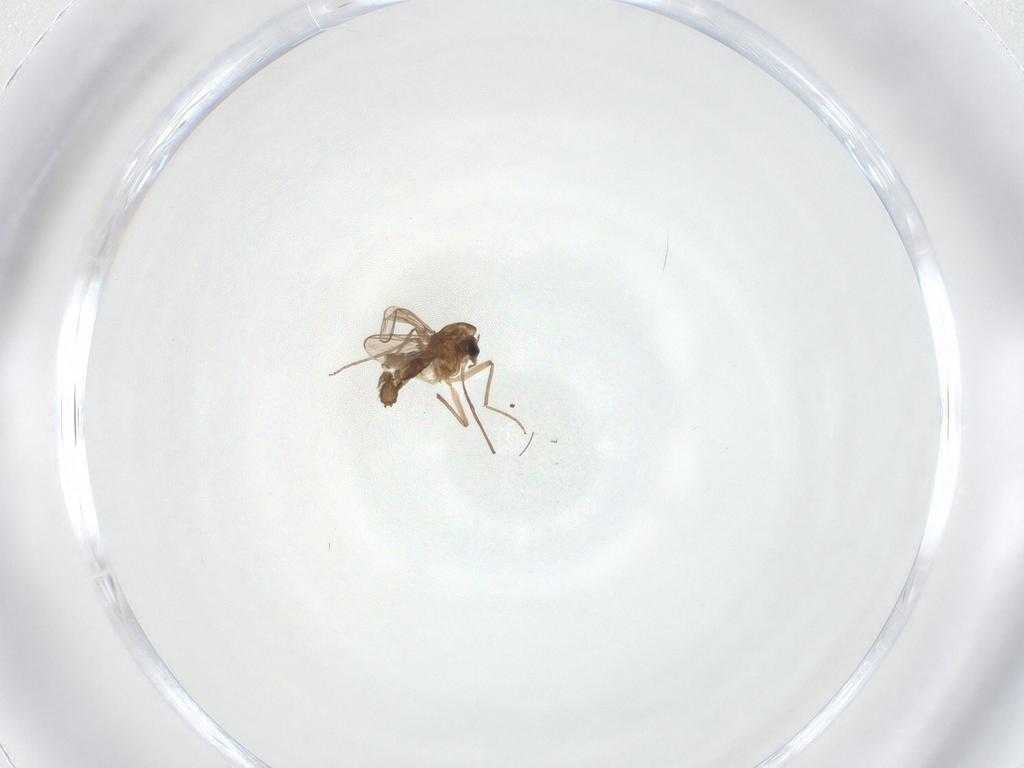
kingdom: Animalia
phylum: Arthropoda
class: Insecta
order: Diptera
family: Chironomidae
